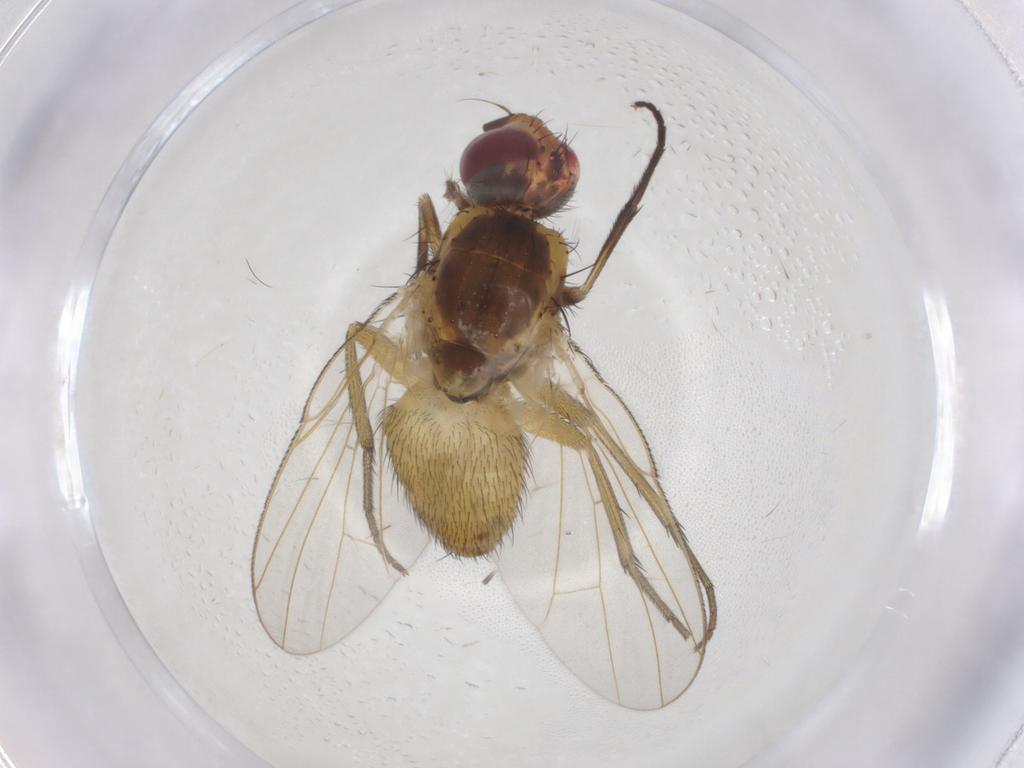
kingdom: Animalia
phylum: Arthropoda
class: Insecta
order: Diptera
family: Muscidae
